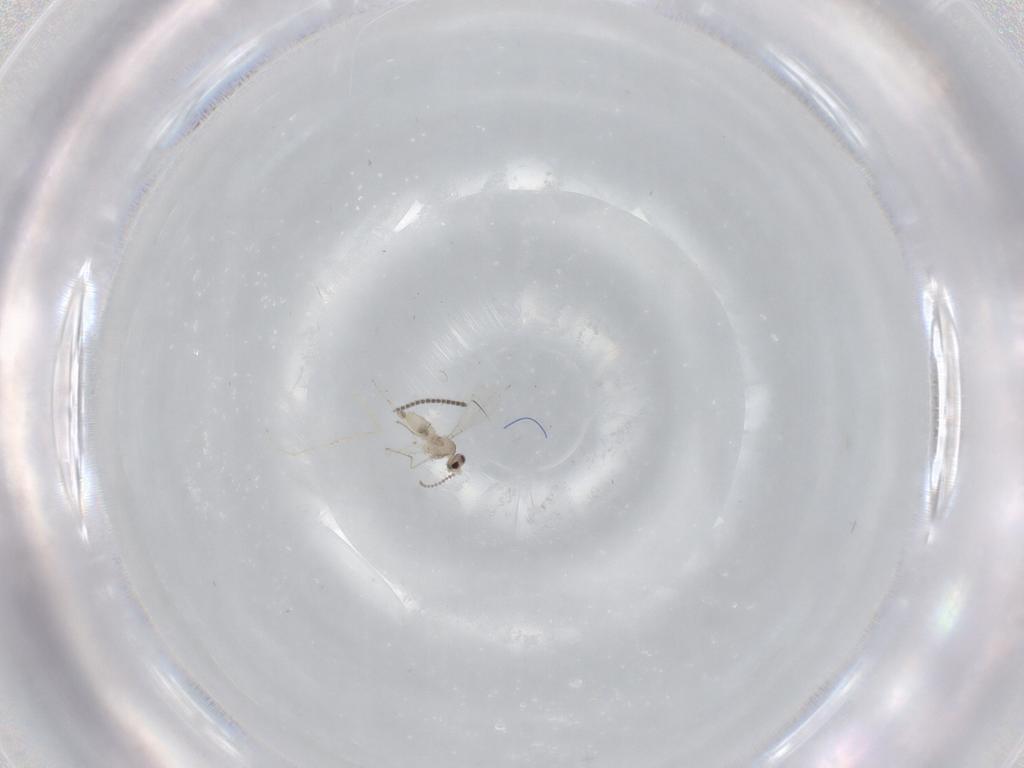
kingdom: Animalia
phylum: Arthropoda
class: Insecta
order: Diptera
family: Cecidomyiidae
